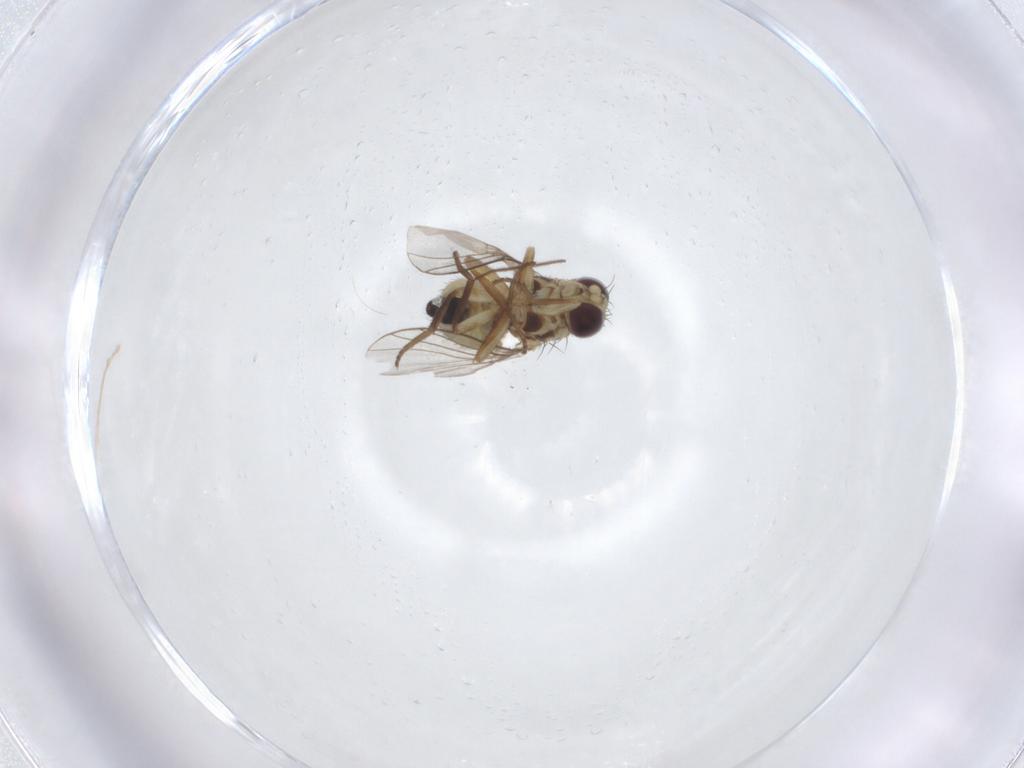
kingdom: Animalia
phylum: Arthropoda
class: Insecta
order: Diptera
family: Agromyzidae
